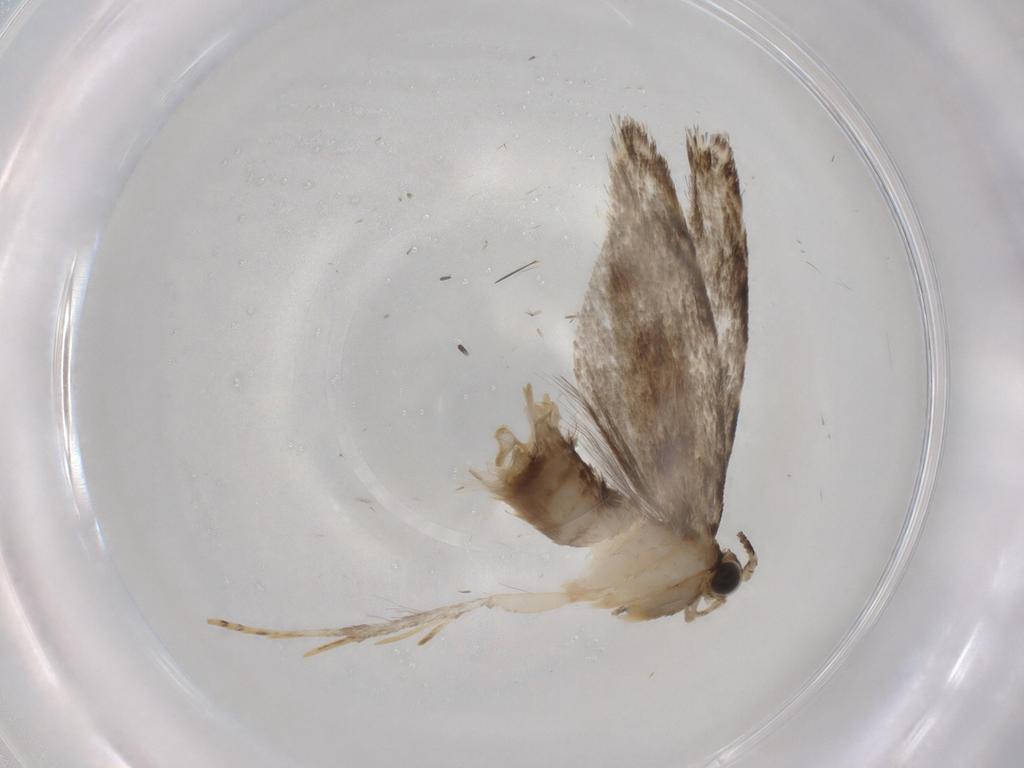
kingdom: Animalia
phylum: Arthropoda
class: Insecta
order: Lepidoptera
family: Tineidae
